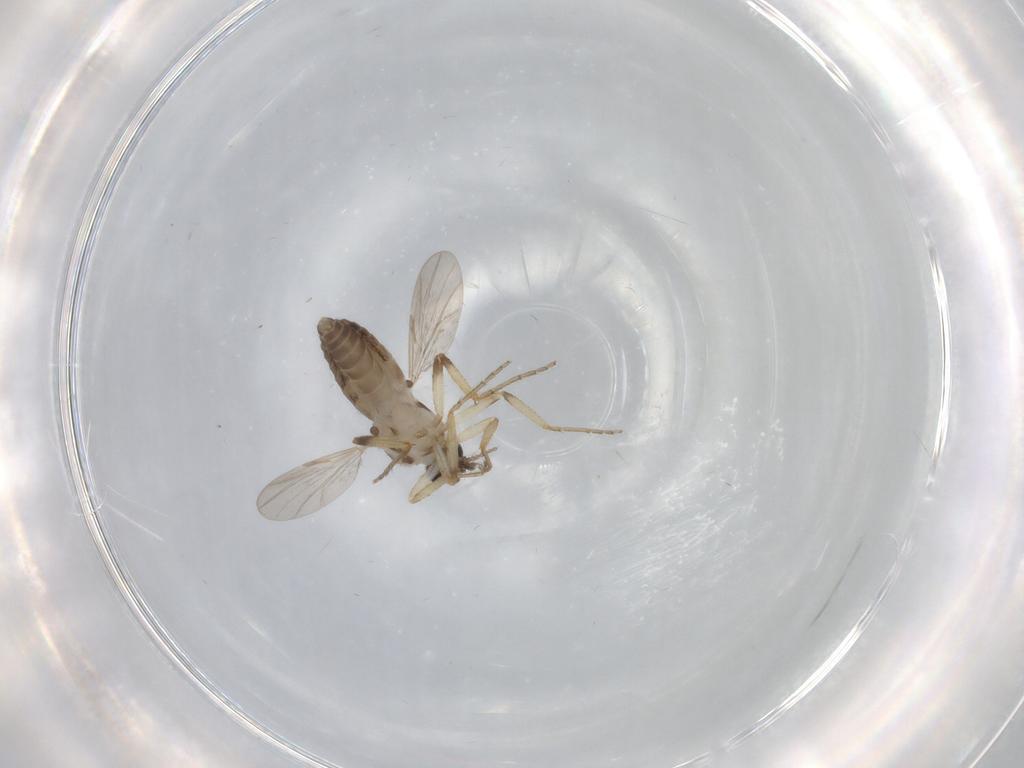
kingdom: Animalia
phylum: Arthropoda
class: Insecta
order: Diptera
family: Ceratopogonidae
